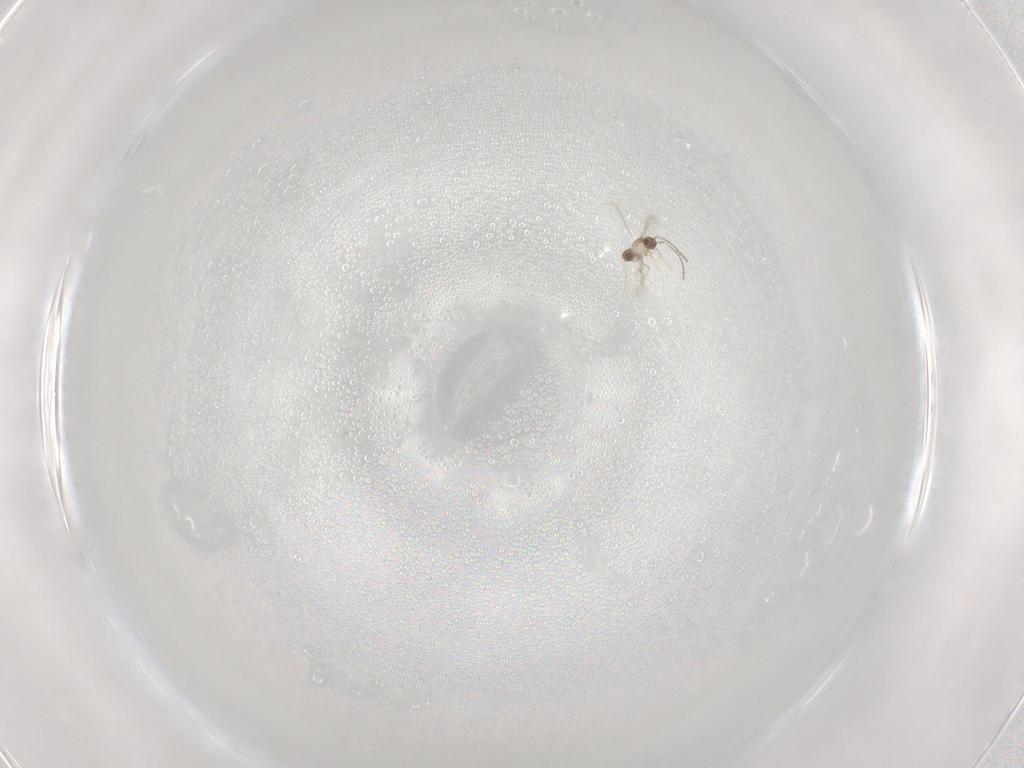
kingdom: Animalia
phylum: Arthropoda
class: Insecta
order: Hymenoptera
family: Mymaridae
